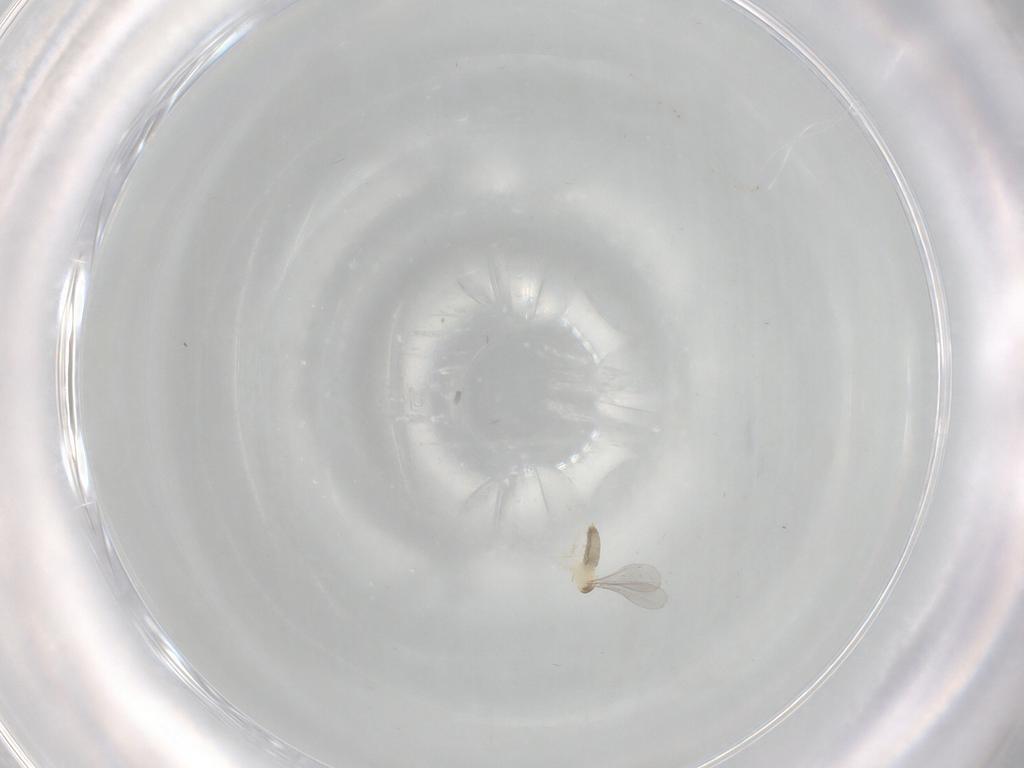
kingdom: Animalia
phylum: Arthropoda
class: Insecta
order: Diptera
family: Cecidomyiidae
